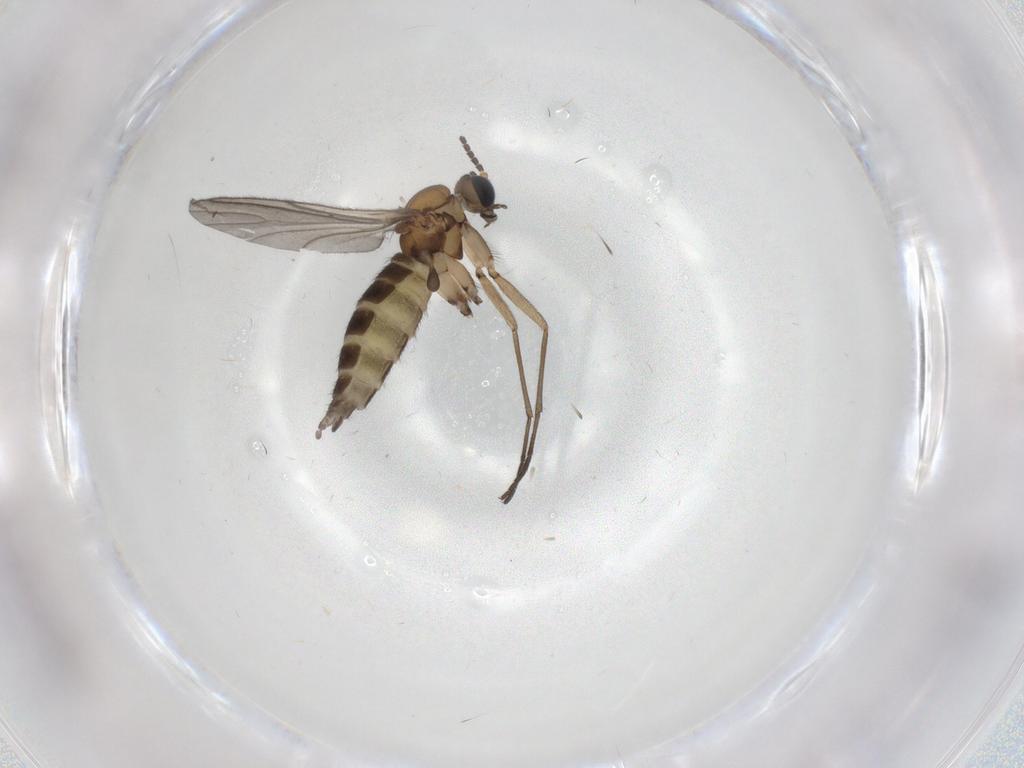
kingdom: Animalia
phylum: Arthropoda
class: Insecta
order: Diptera
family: Sciaridae
